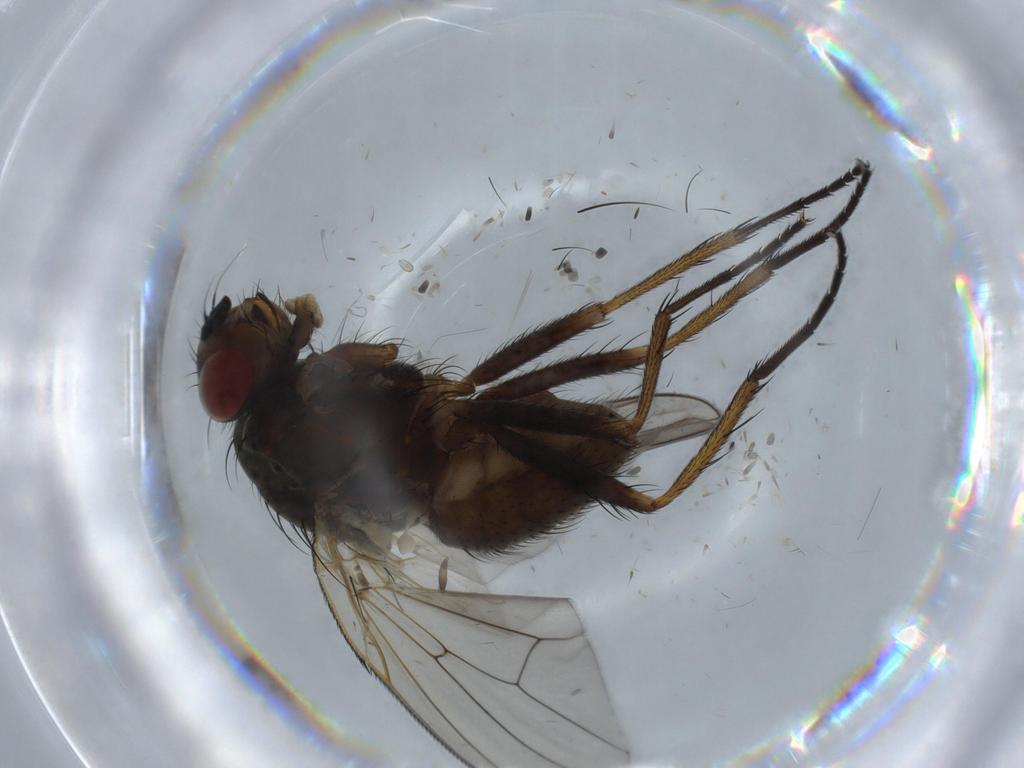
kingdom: Animalia
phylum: Arthropoda
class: Insecta
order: Diptera
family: Anthomyiidae
